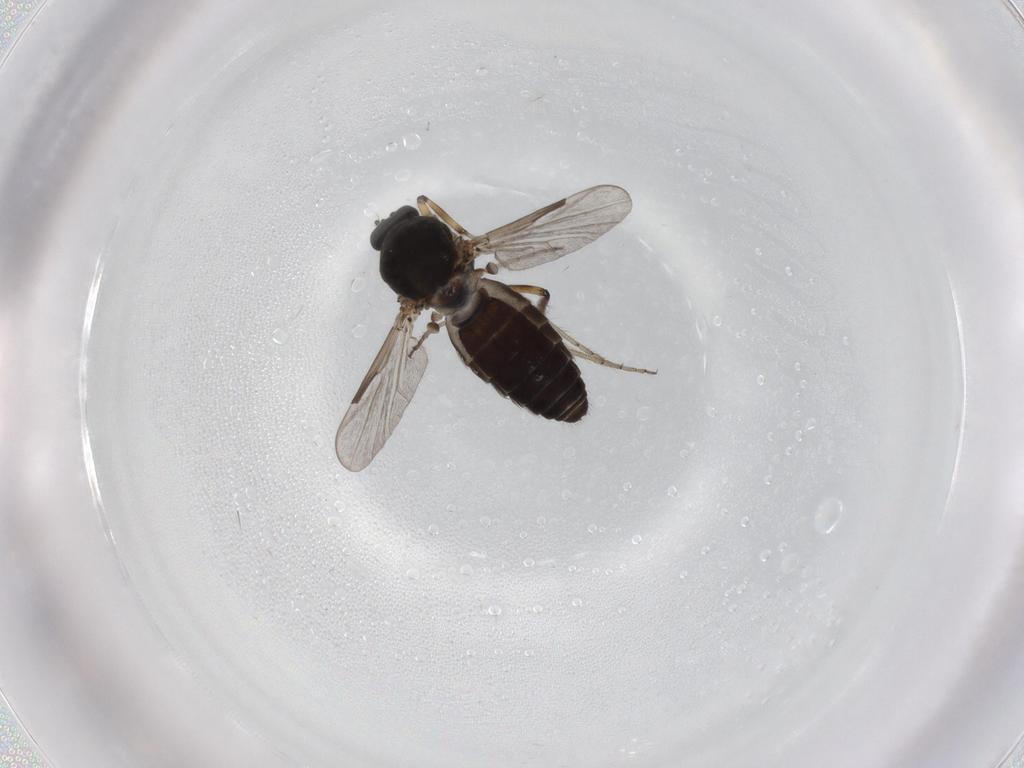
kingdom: Animalia
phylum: Arthropoda
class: Insecta
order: Diptera
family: Ceratopogonidae
